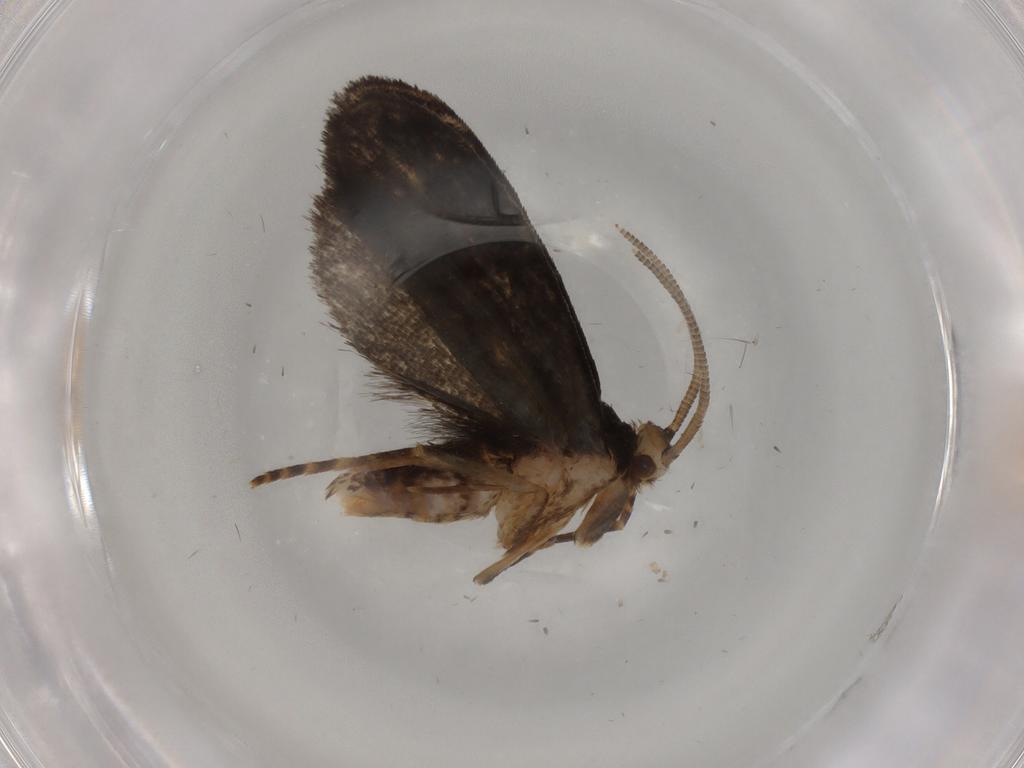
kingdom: Animalia
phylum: Arthropoda
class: Insecta
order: Lepidoptera
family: Dryadaulidae
